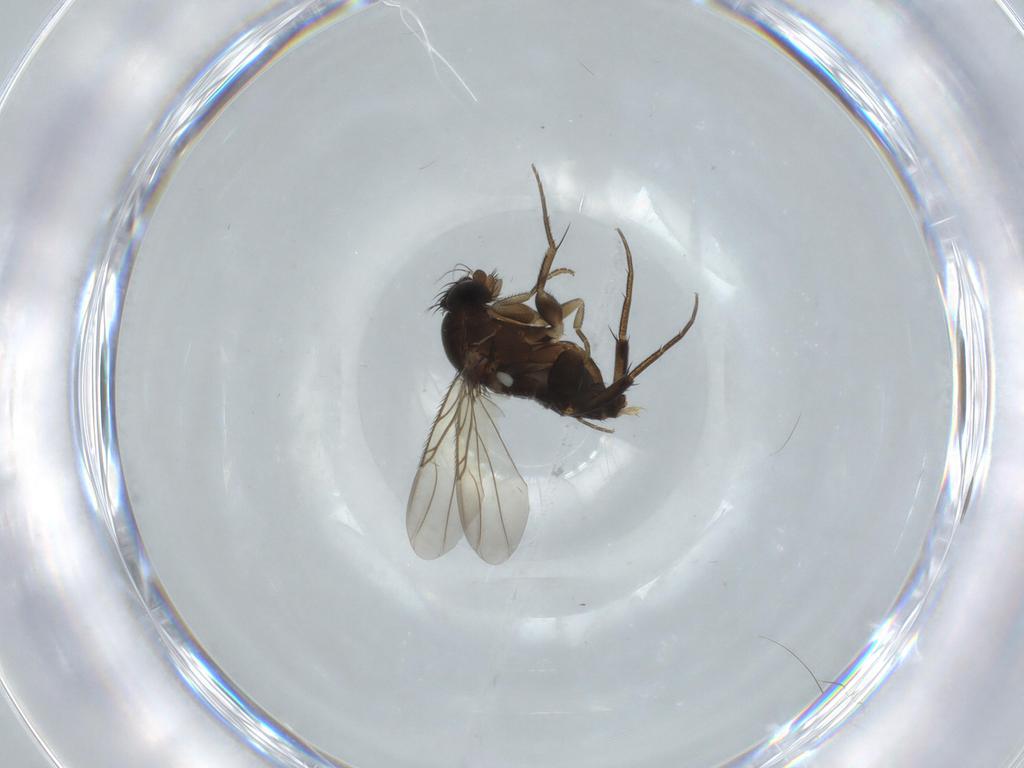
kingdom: Animalia
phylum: Arthropoda
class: Insecta
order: Diptera
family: Phoridae
